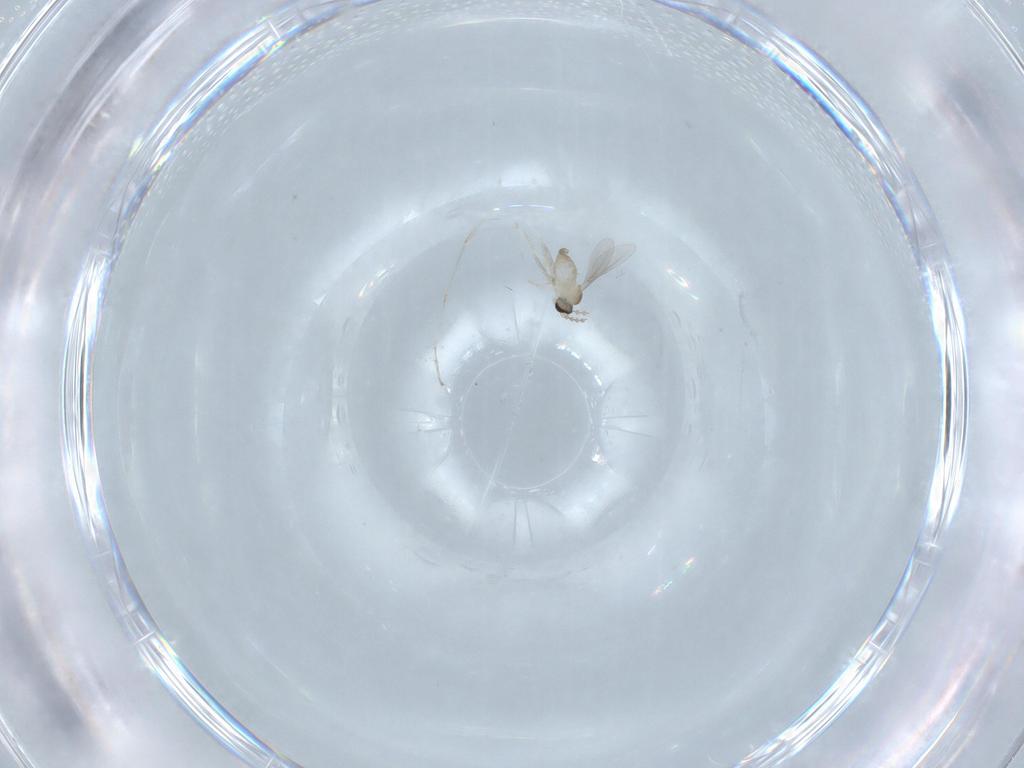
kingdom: Animalia
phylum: Arthropoda
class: Insecta
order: Diptera
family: Cecidomyiidae
